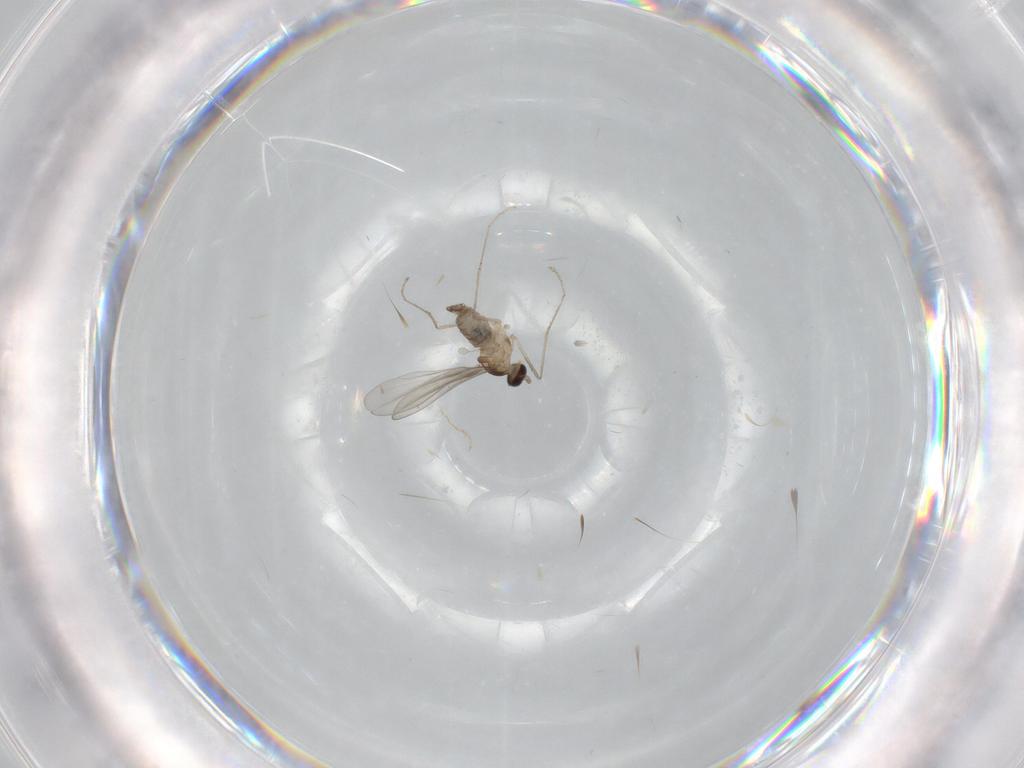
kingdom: Animalia
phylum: Arthropoda
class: Insecta
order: Diptera
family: Cecidomyiidae
